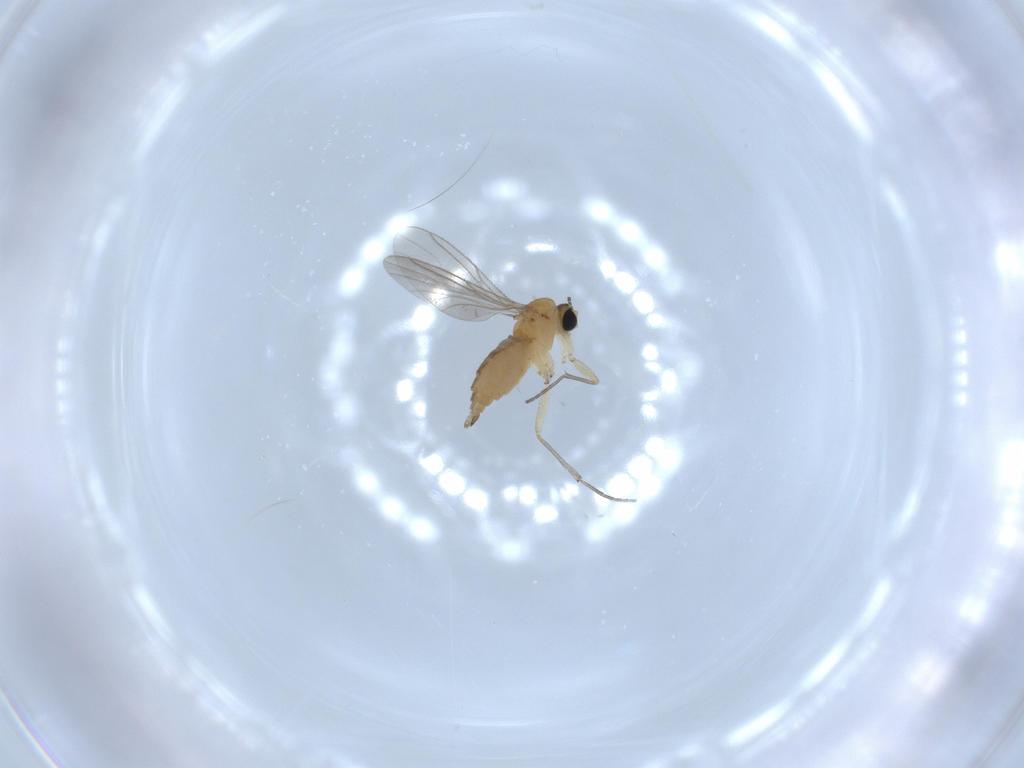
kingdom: Animalia
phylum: Arthropoda
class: Insecta
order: Diptera
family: Sciaridae
